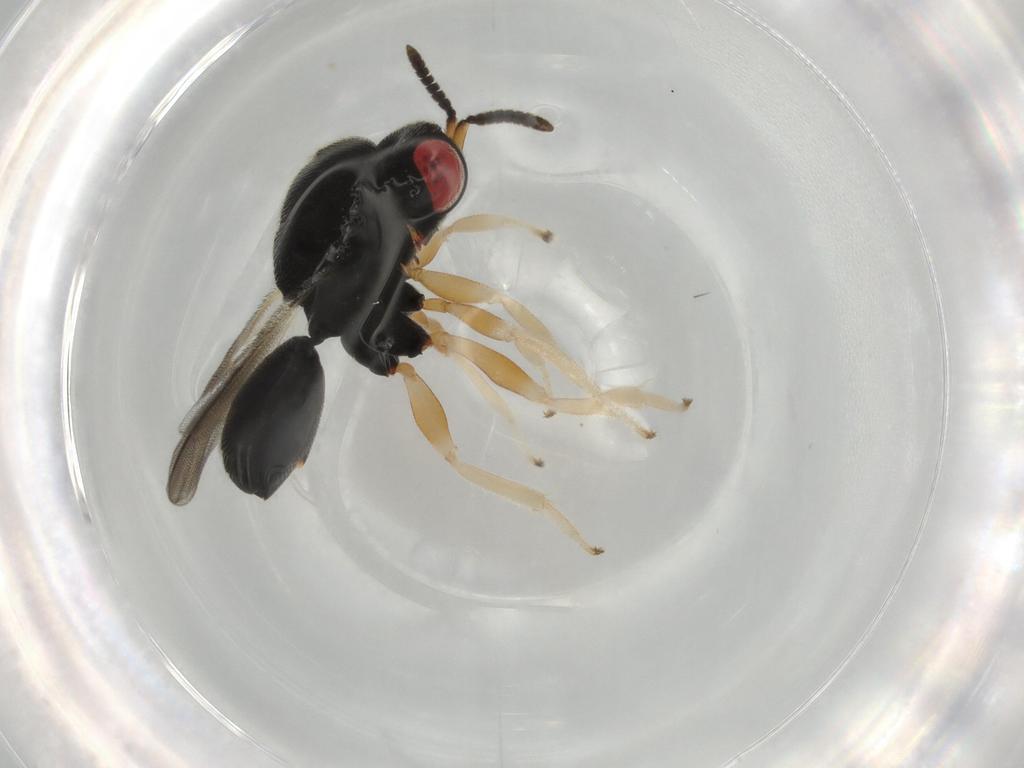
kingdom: Animalia
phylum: Arthropoda
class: Insecta
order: Hymenoptera
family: Eurytomidae
